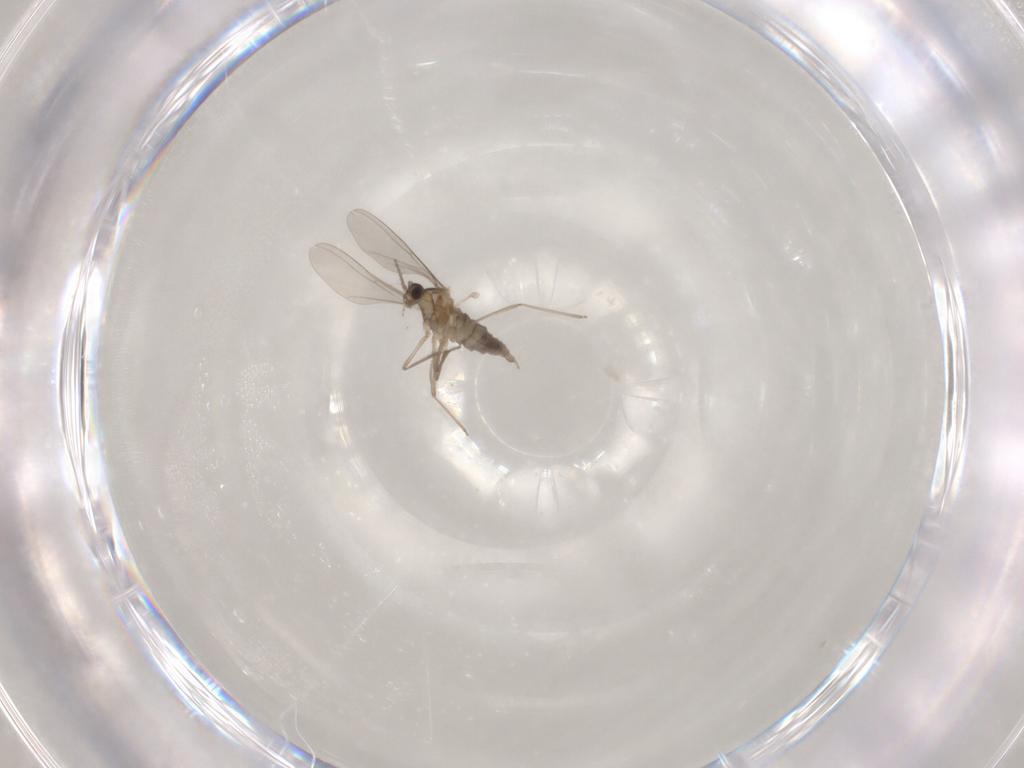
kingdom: Animalia
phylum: Arthropoda
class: Insecta
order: Diptera
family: Cecidomyiidae
